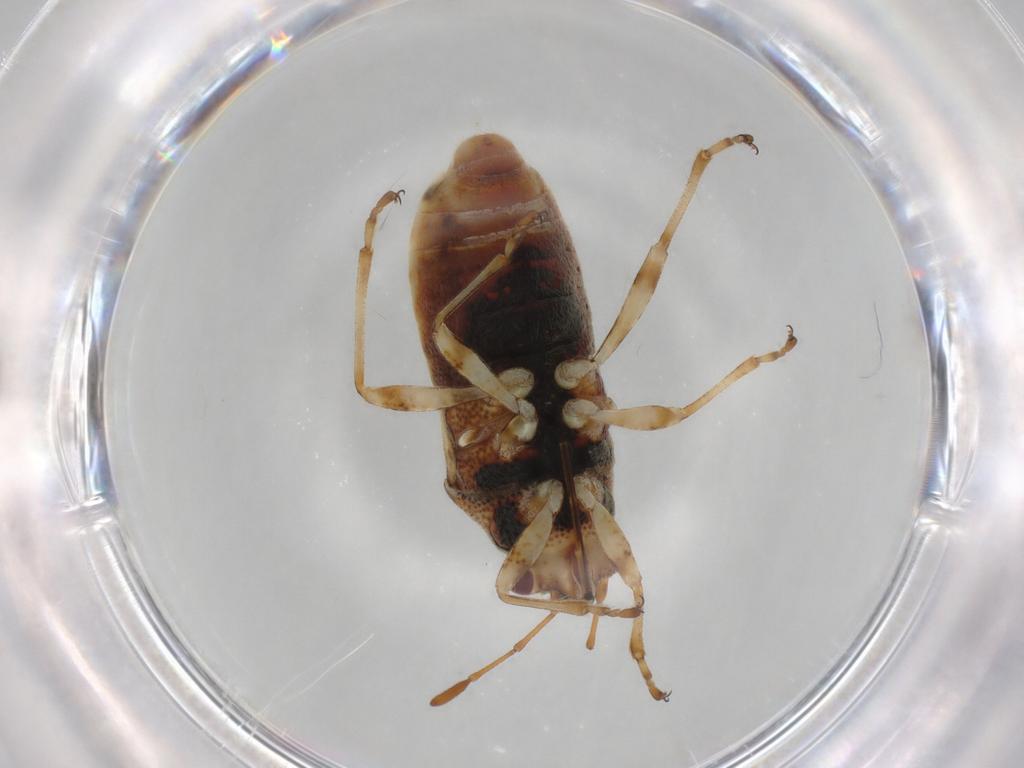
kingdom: Animalia
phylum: Arthropoda
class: Insecta
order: Hemiptera
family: Lygaeidae
